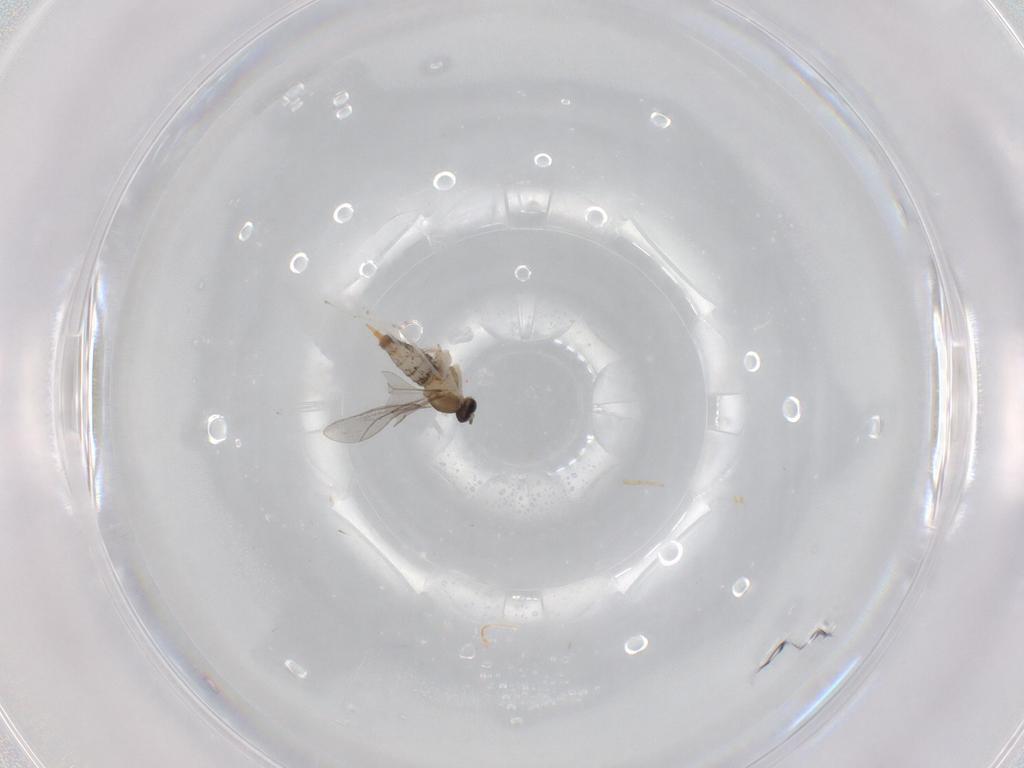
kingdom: Animalia
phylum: Arthropoda
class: Insecta
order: Diptera
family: Cecidomyiidae
